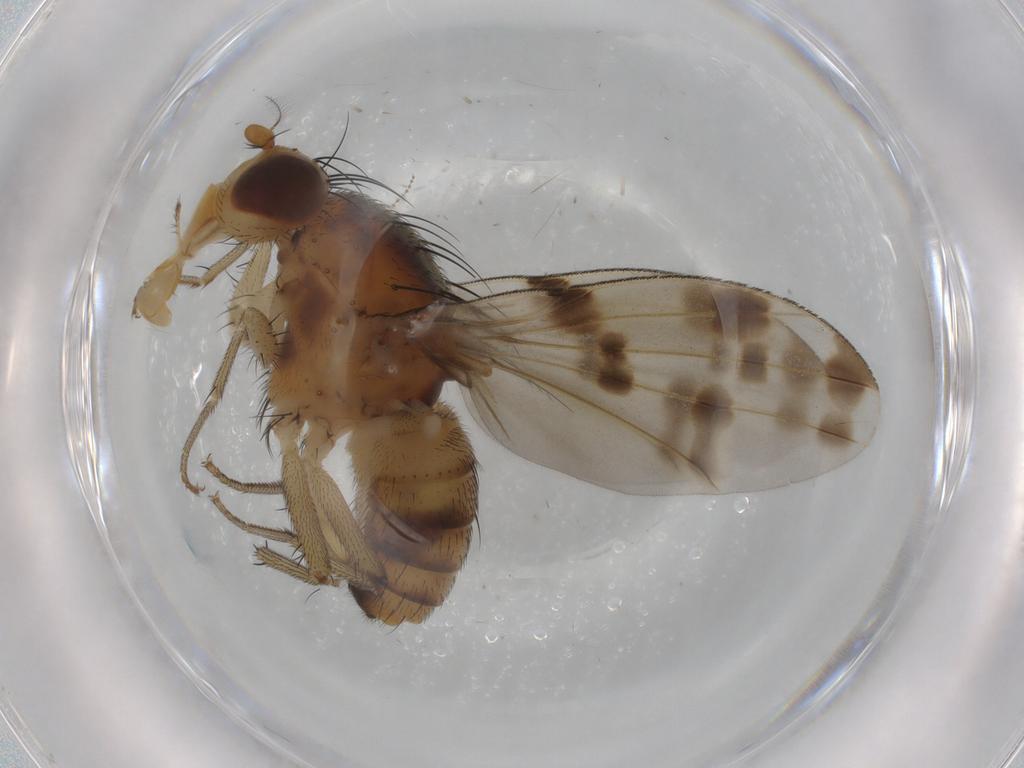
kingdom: Animalia
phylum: Arthropoda
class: Insecta
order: Diptera
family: Lauxaniidae
